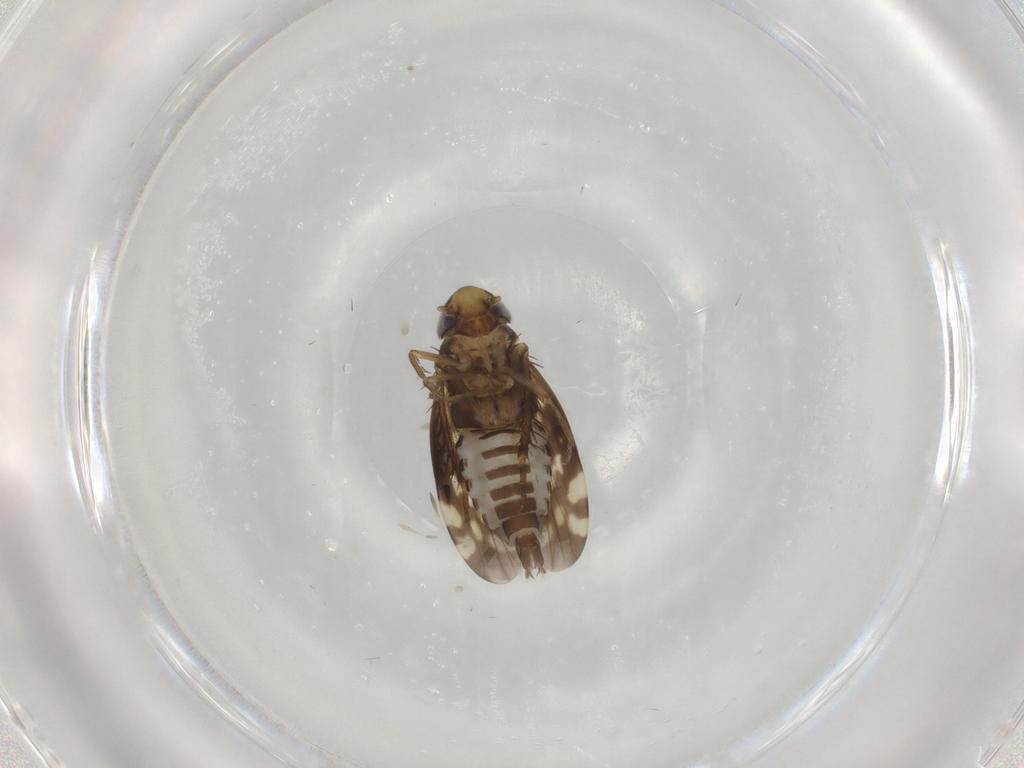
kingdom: Animalia
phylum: Arthropoda
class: Insecta
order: Hemiptera
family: Cicadellidae
